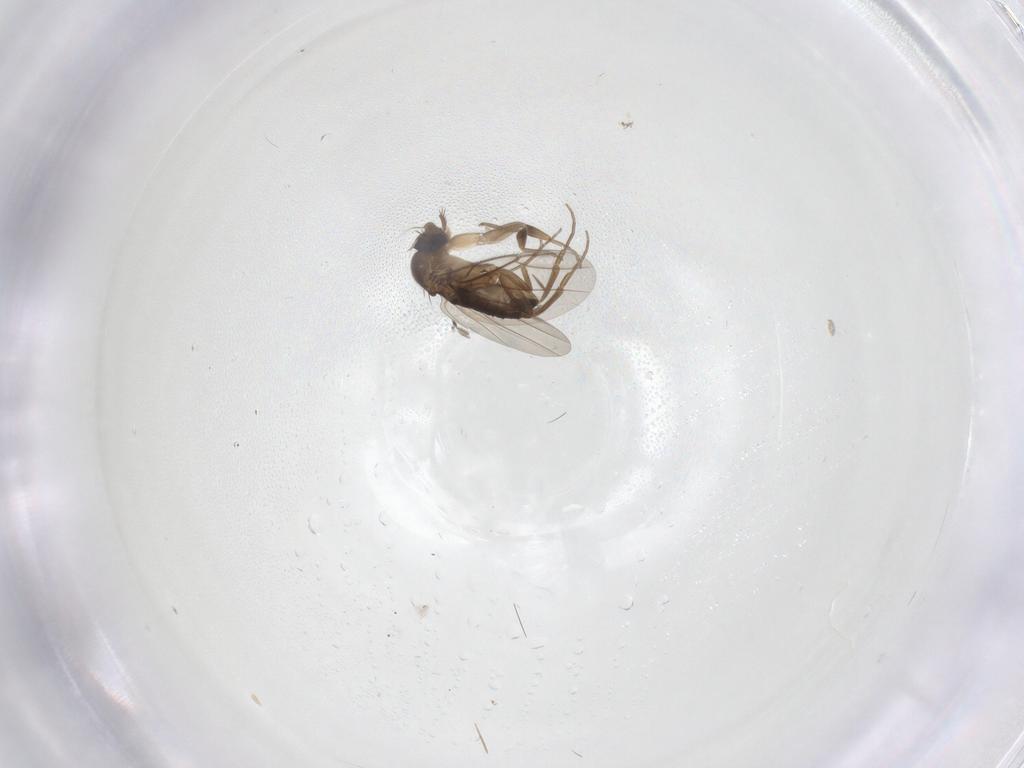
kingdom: Animalia
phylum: Arthropoda
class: Insecta
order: Diptera
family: Phoridae
